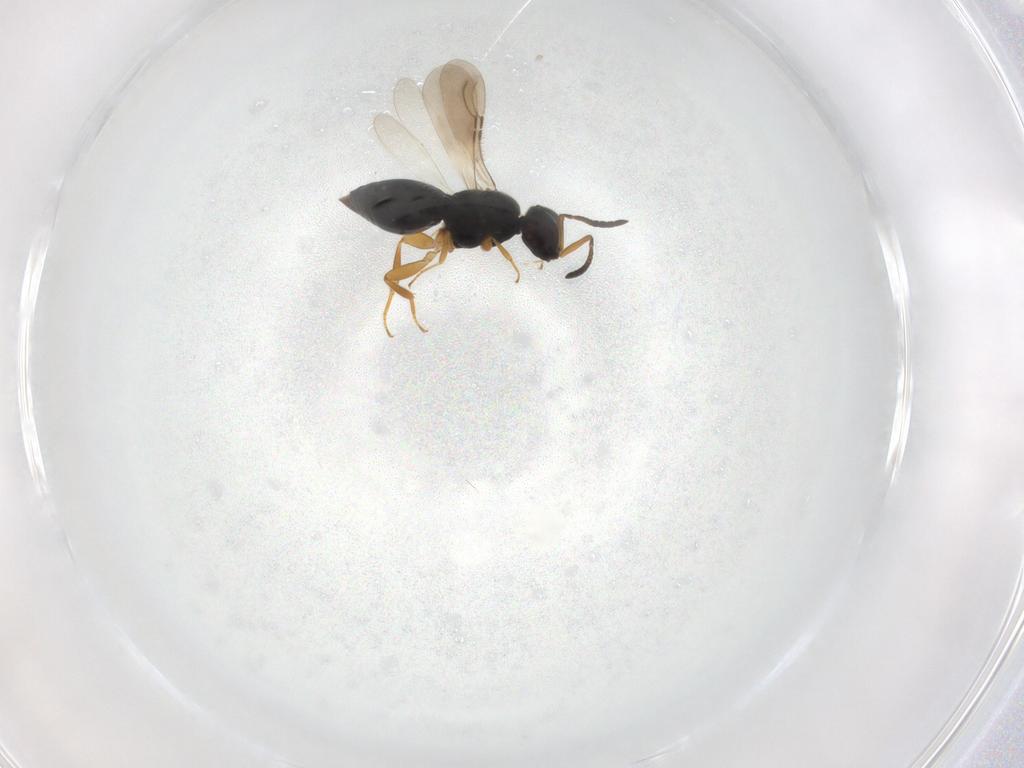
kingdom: Animalia
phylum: Arthropoda
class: Insecta
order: Hymenoptera
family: Formicidae
